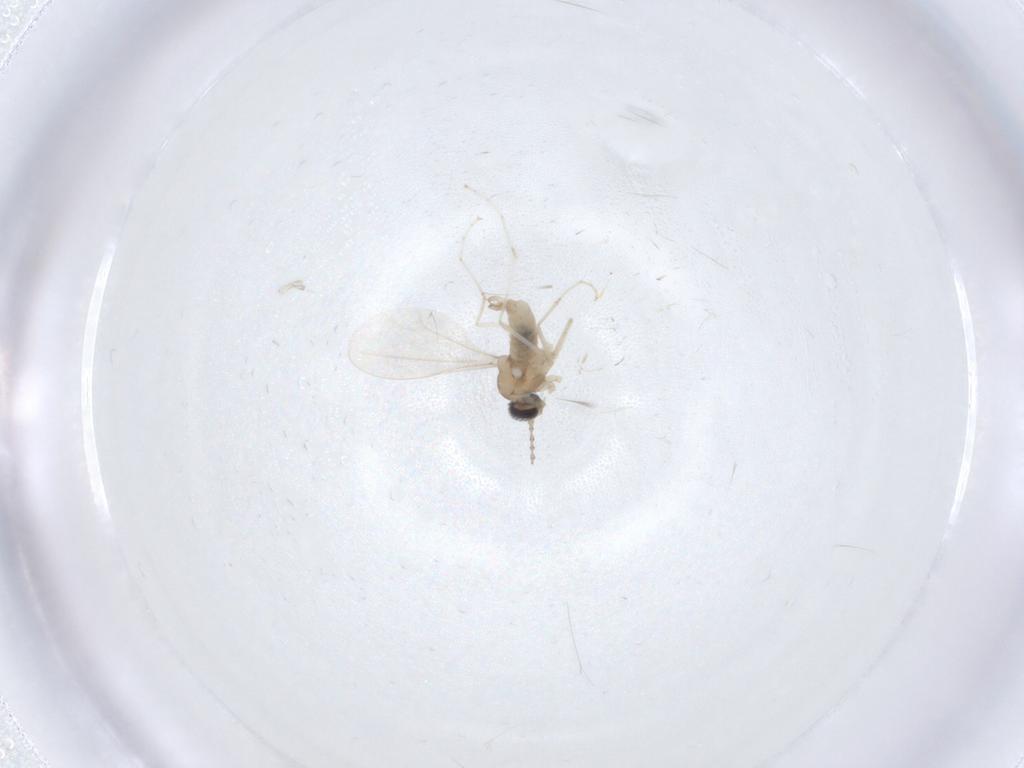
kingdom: Animalia
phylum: Arthropoda
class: Insecta
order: Diptera
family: Cecidomyiidae
